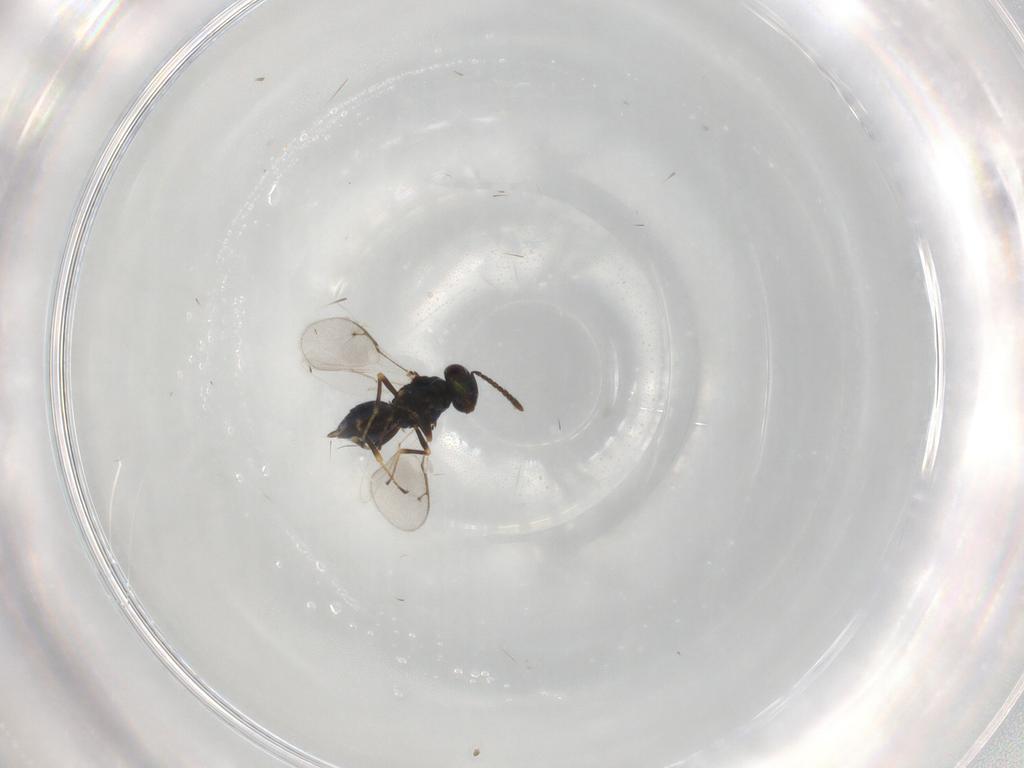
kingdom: Animalia
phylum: Arthropoda
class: Insecta
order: Hymenoptera
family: Pteromalidae
